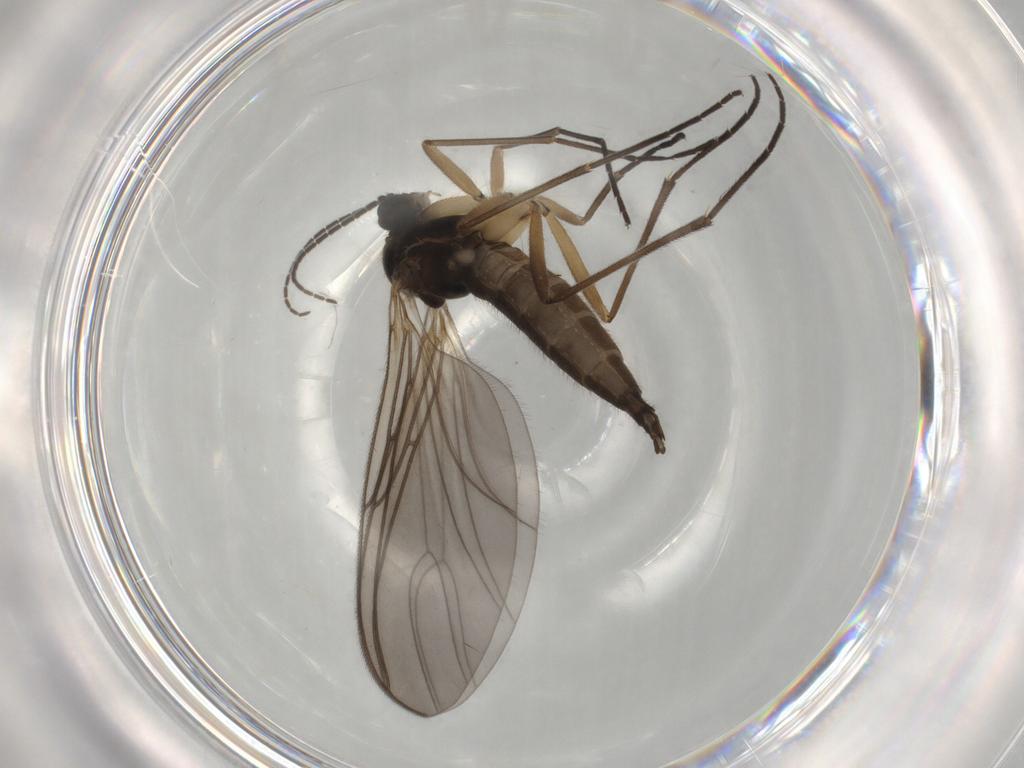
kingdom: Animalia
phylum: Arthropoda
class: Insecta
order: Diptera
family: Sciaridae
